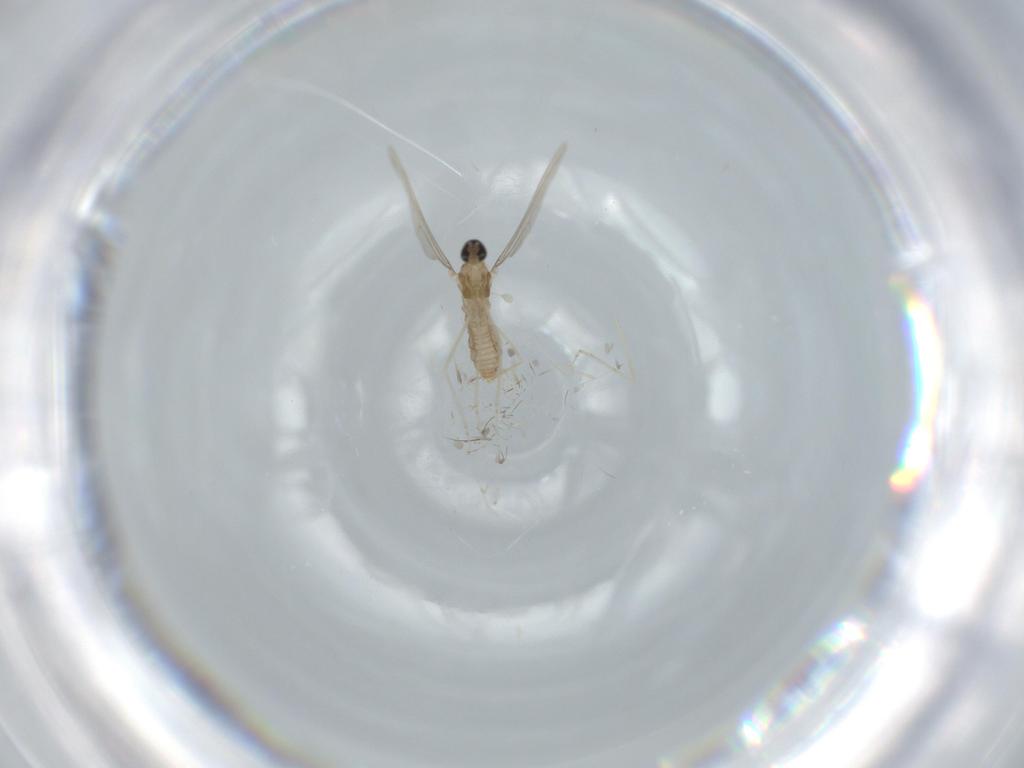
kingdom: Animalia
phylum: Arthropoda
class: Insecta
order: Diptera
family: Cecidomyiidae
